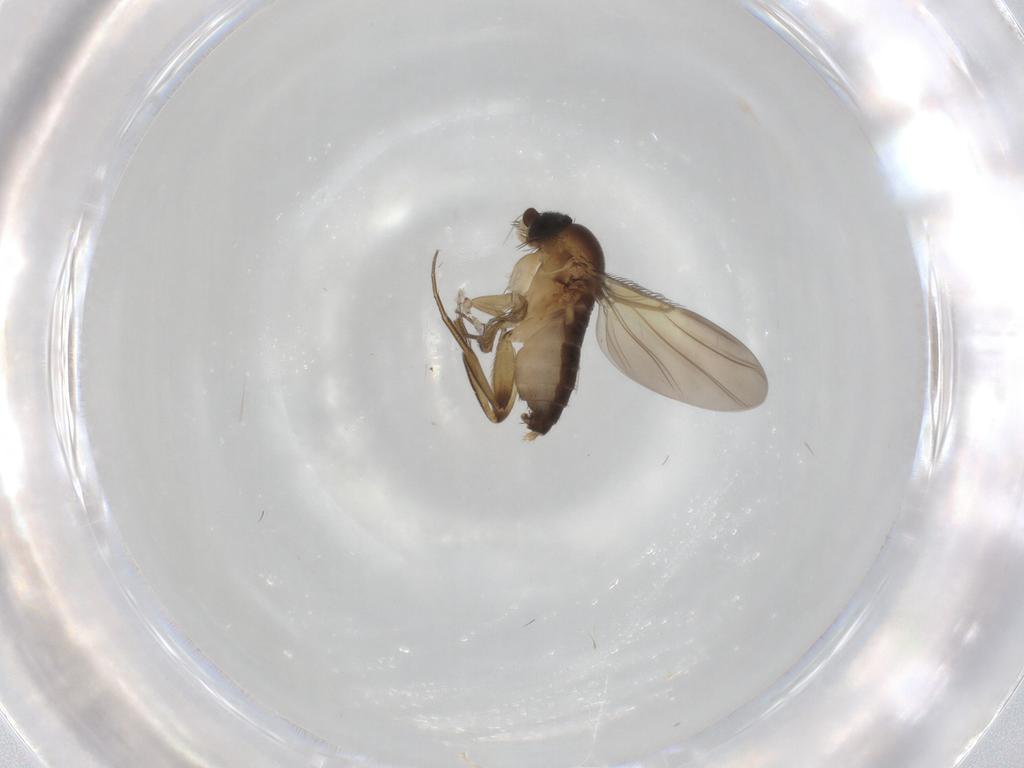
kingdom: Animalia
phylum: Arthropoda
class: Insecta
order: Diptera
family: Phoridae
